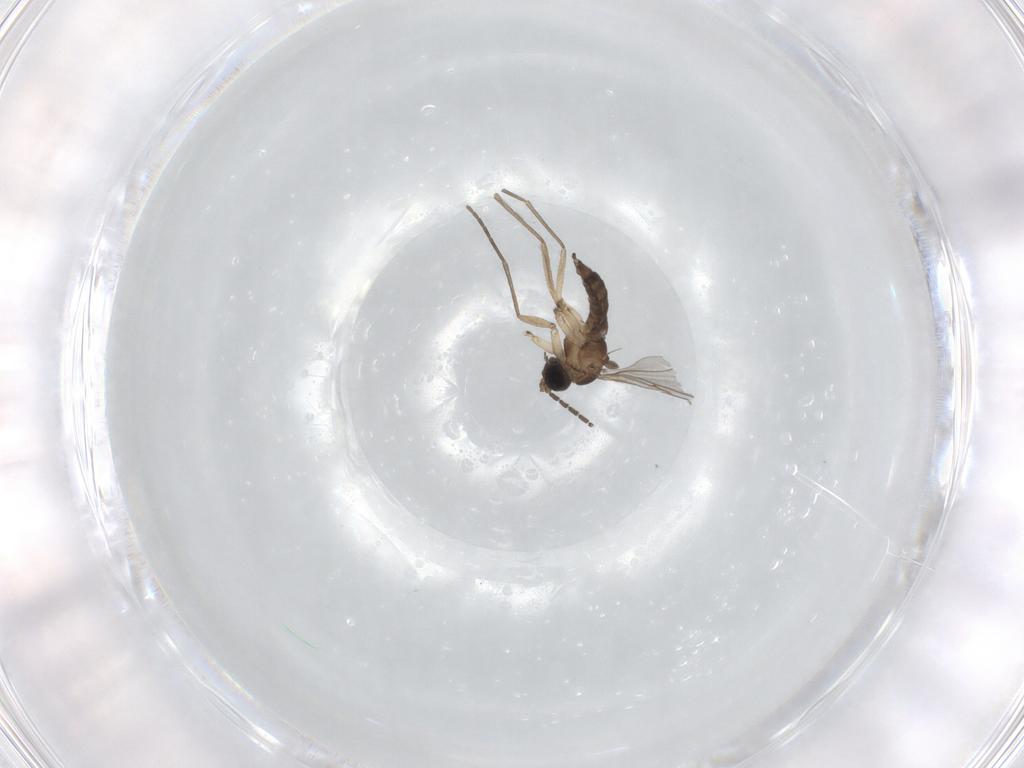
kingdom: Animalia
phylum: Arthropoda
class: Insecta
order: Diptera
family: Sciaridae
